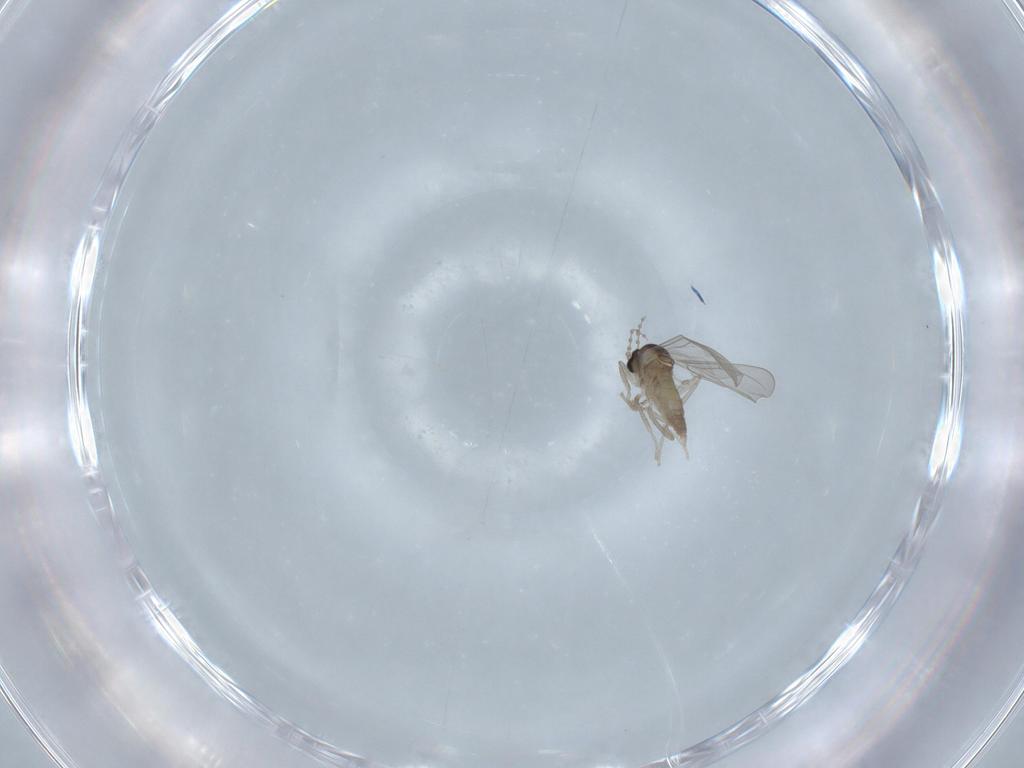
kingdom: Animalia
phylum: Arthropoda
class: Insecta
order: Diptera
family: Cecidomyiidae
